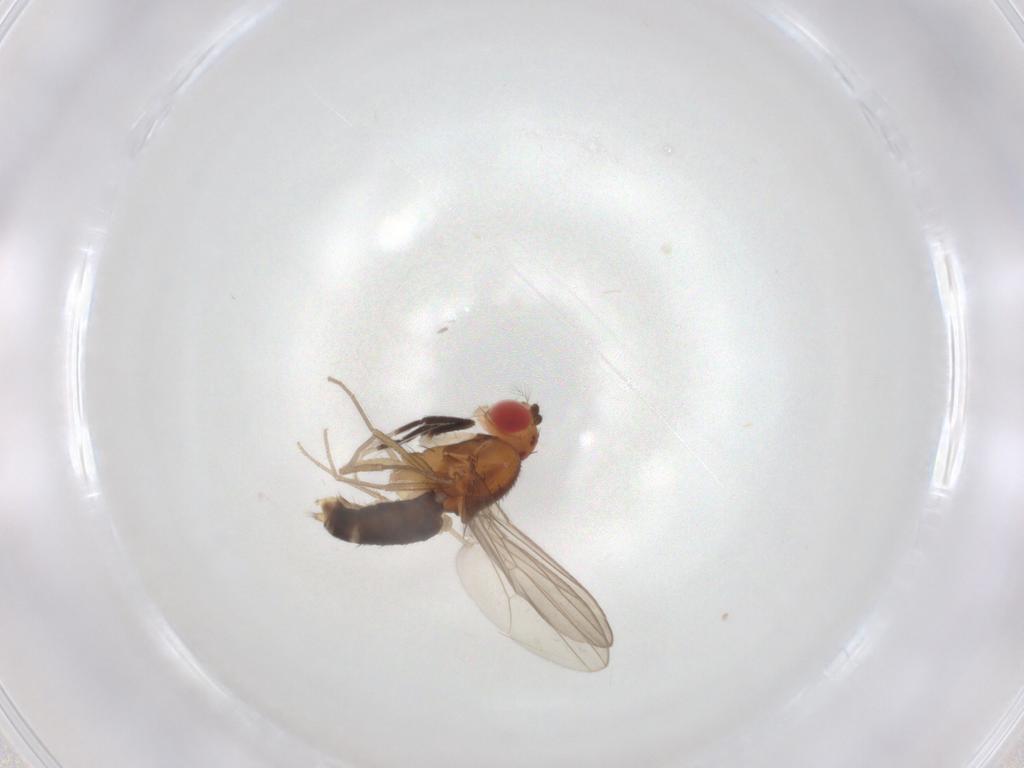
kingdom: Animalia
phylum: Arthropoda
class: Insecta
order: Diptera
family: Drosophilidae
